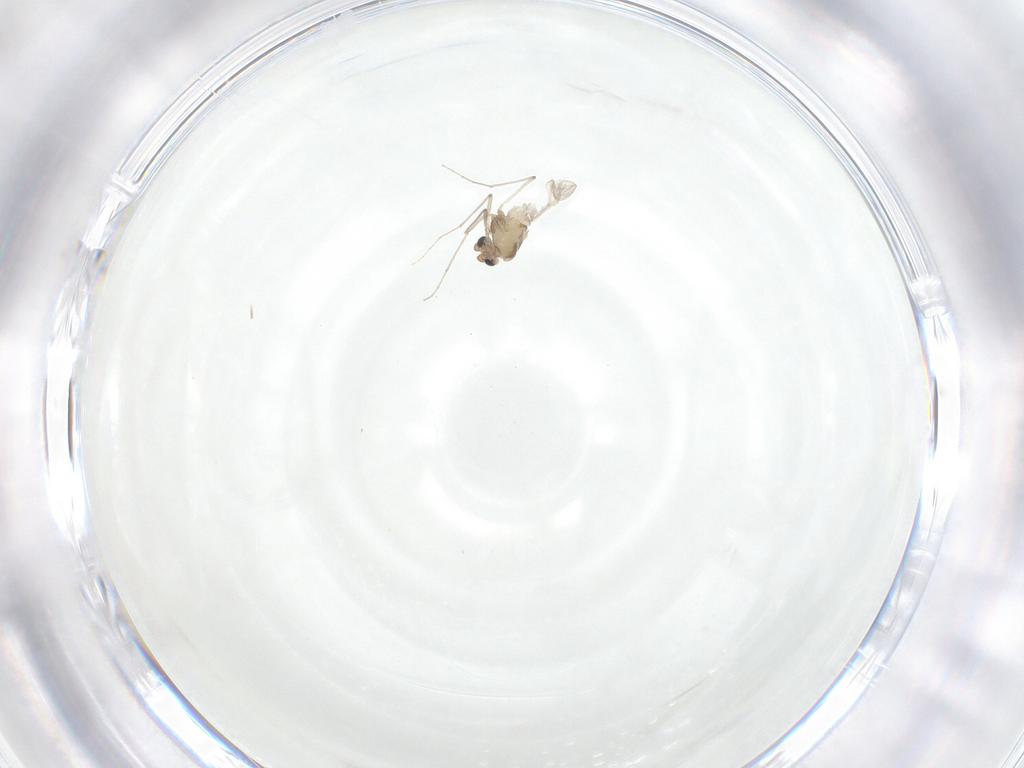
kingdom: Animalia
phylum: Arthropoda
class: Insecta
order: Diptera
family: Chironomidae
